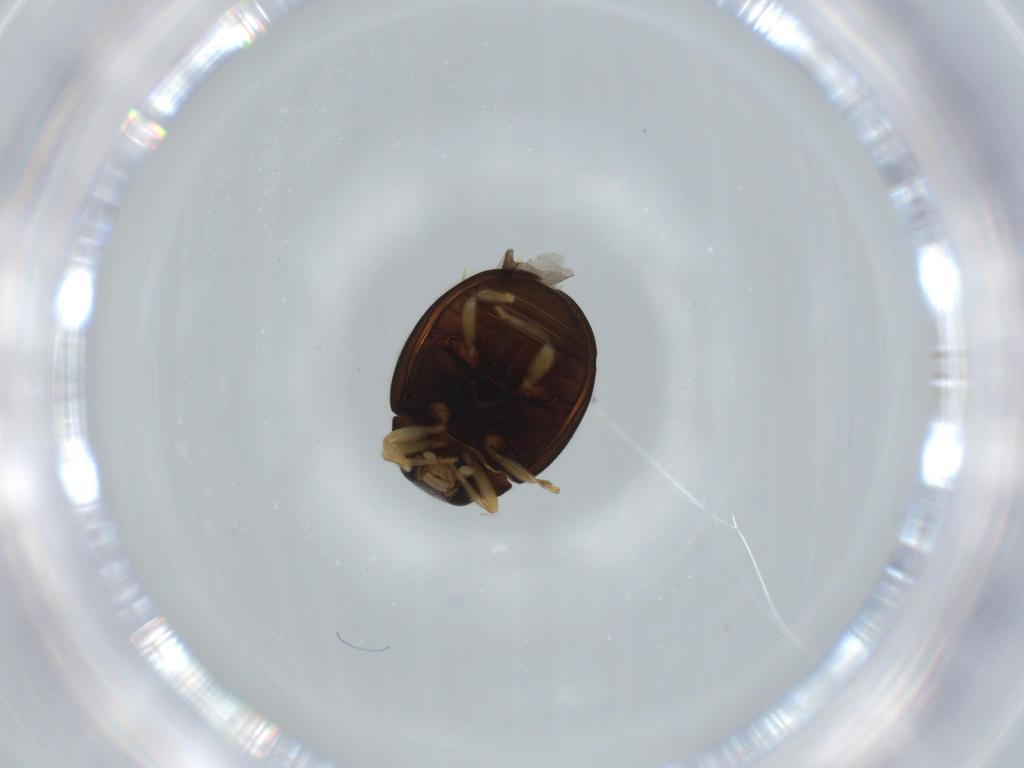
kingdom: Animalia
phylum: Arthropoda
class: Insecta
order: Coleoptera
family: Coccinellidae
